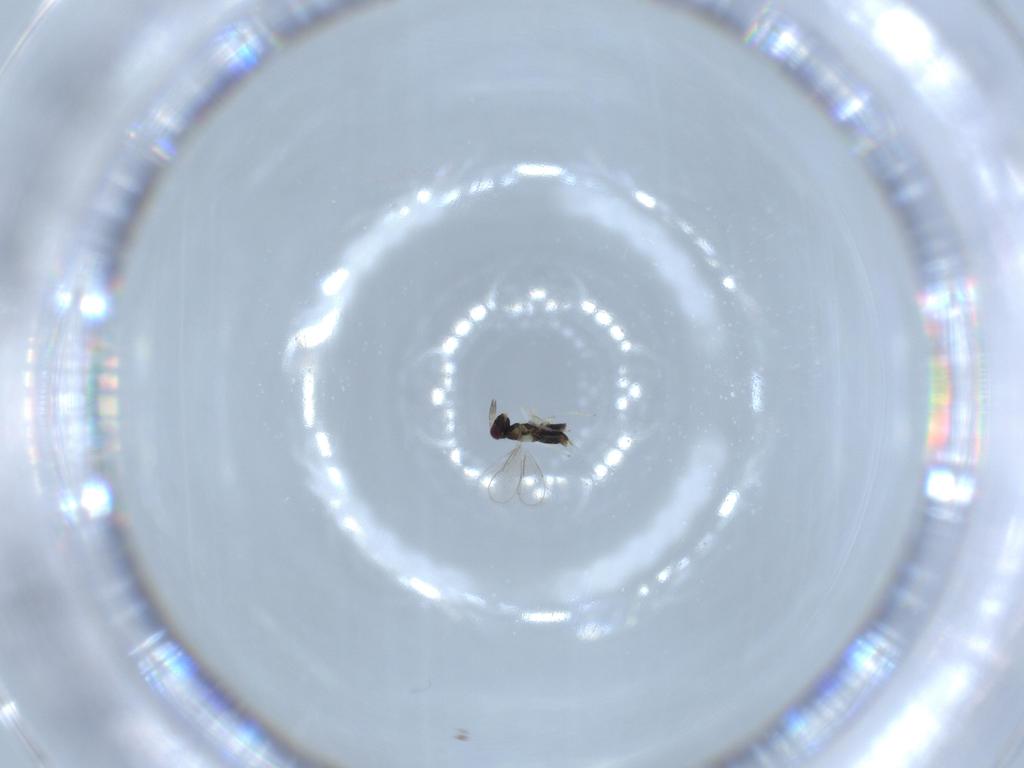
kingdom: Animalia
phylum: Arthropoda
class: Insecta
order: Hymenoptera
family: Aphelinidae
